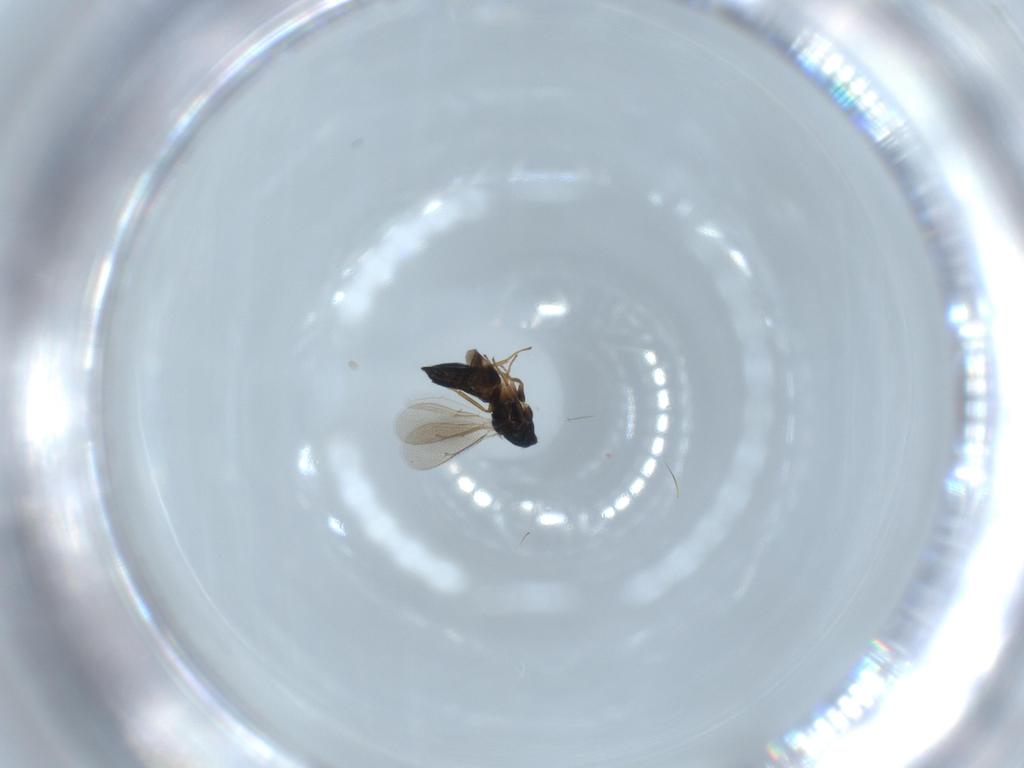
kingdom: Animalia
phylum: Arthropoda
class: Insecta
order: Hymenoptera
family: Eulophidae
